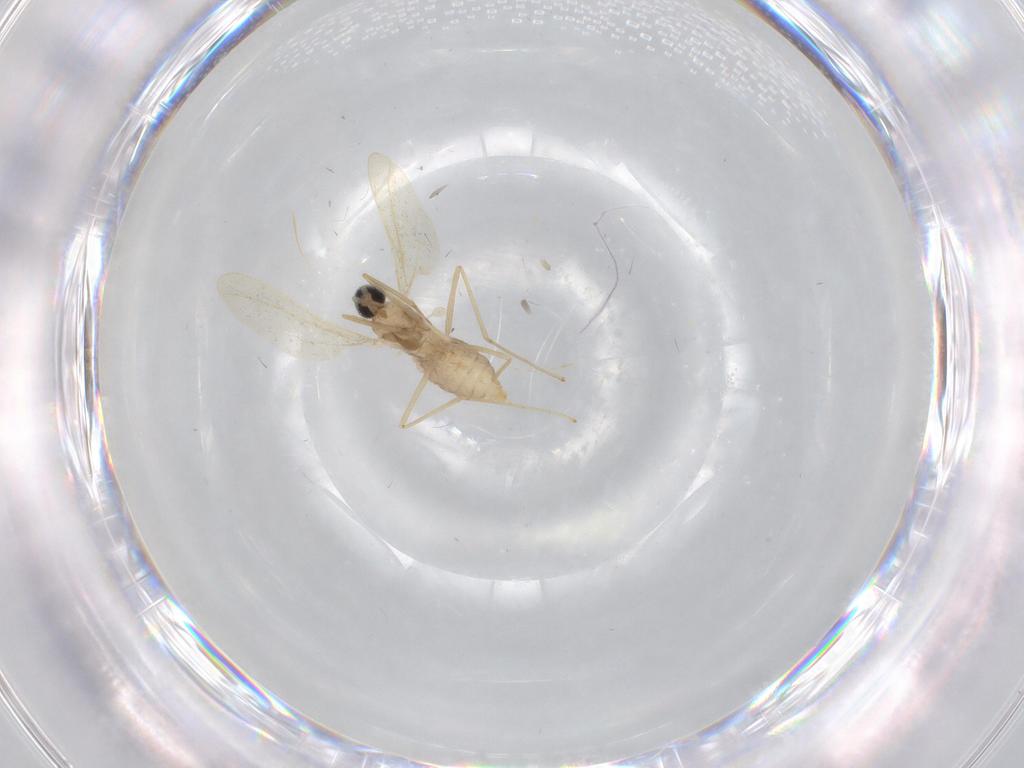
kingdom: Animalia
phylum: Arthropoda
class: Insecta
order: Diptera
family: Cecidomyiidae
